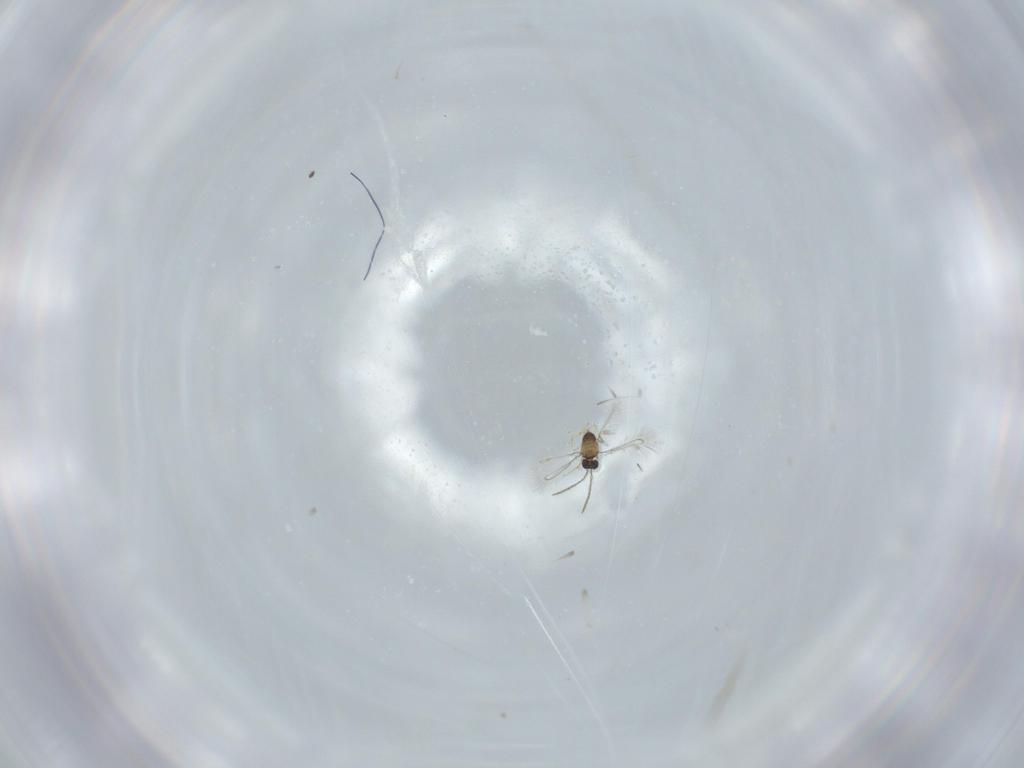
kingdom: Animalia
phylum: Arthropoda
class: Insecta
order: Hymenoptera
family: Mymaridae
